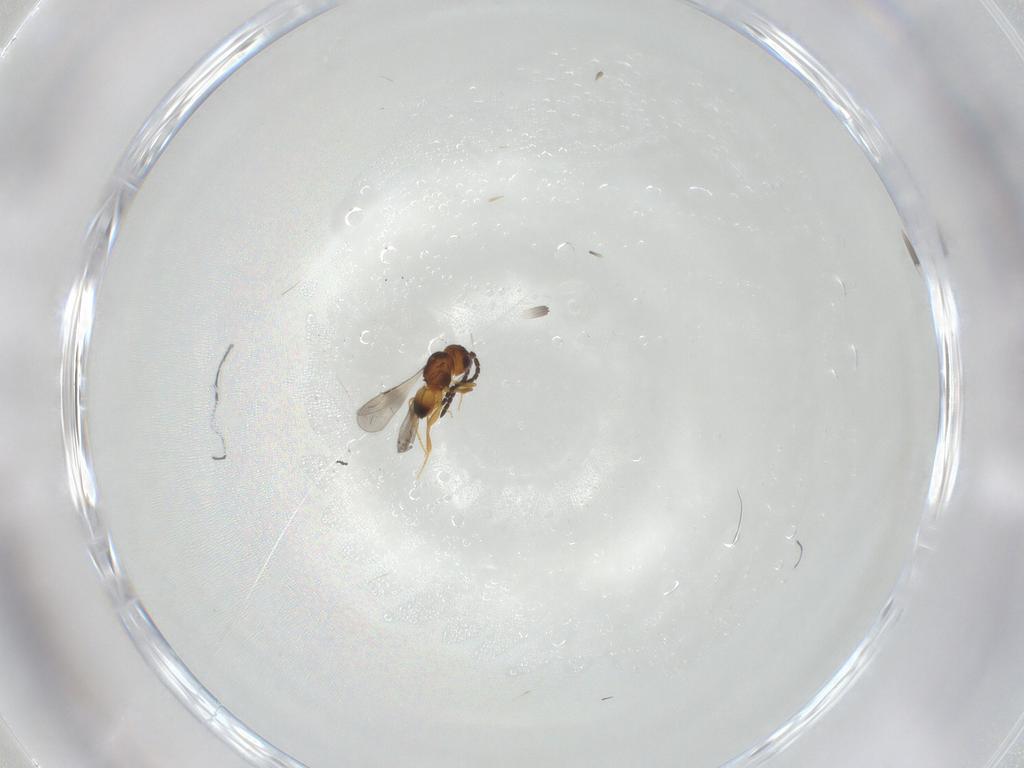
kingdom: Animalia
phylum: Arthropoda
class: Insecta
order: Hymenoptera
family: Ceraphronidae
